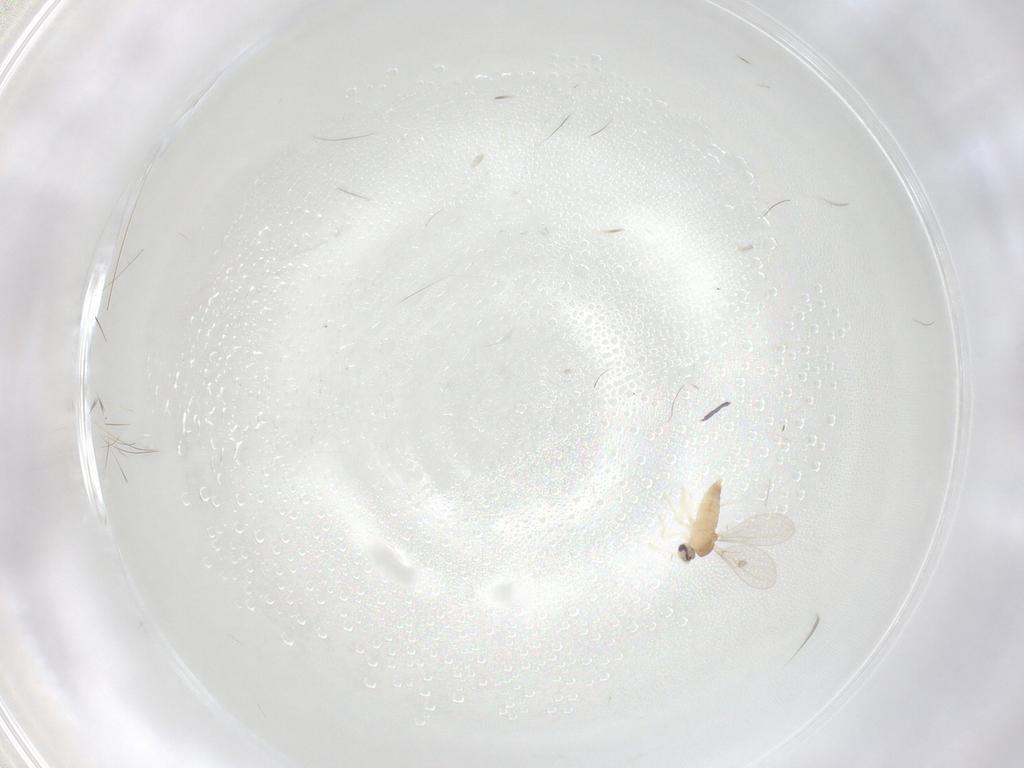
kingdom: Animalia
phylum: Arthropoda
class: Insecta
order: Diptera
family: Cecidomyiidae
